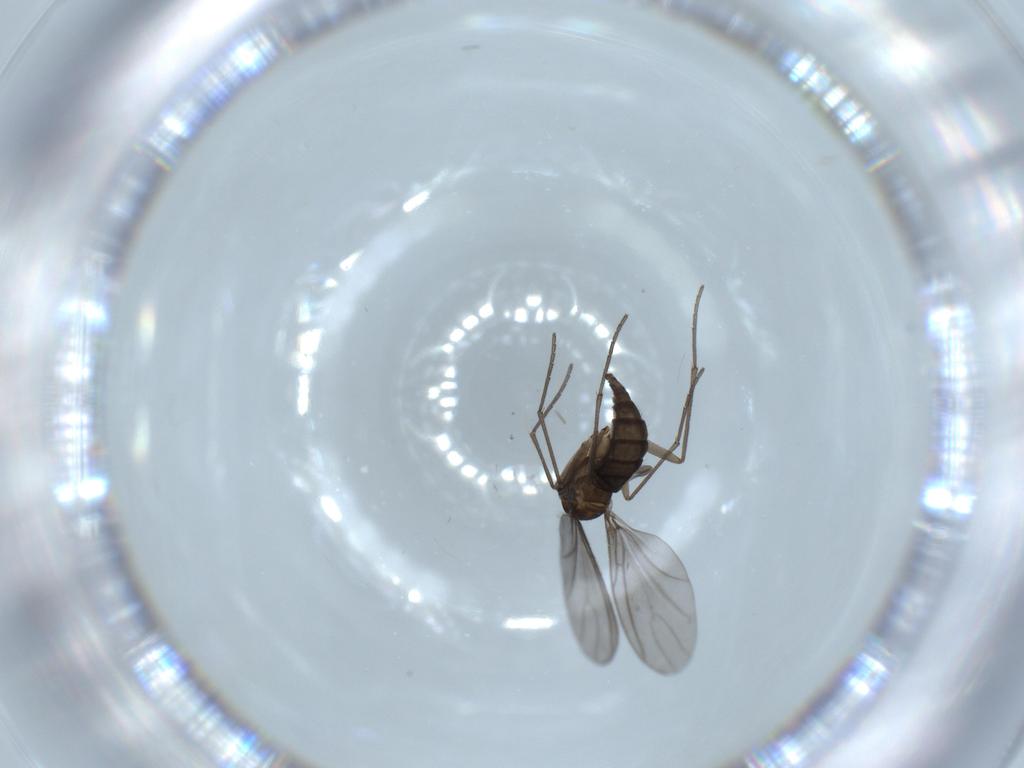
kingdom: Animalia
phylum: Arthropoda
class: Insecta
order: Diptera
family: Sciaridae
